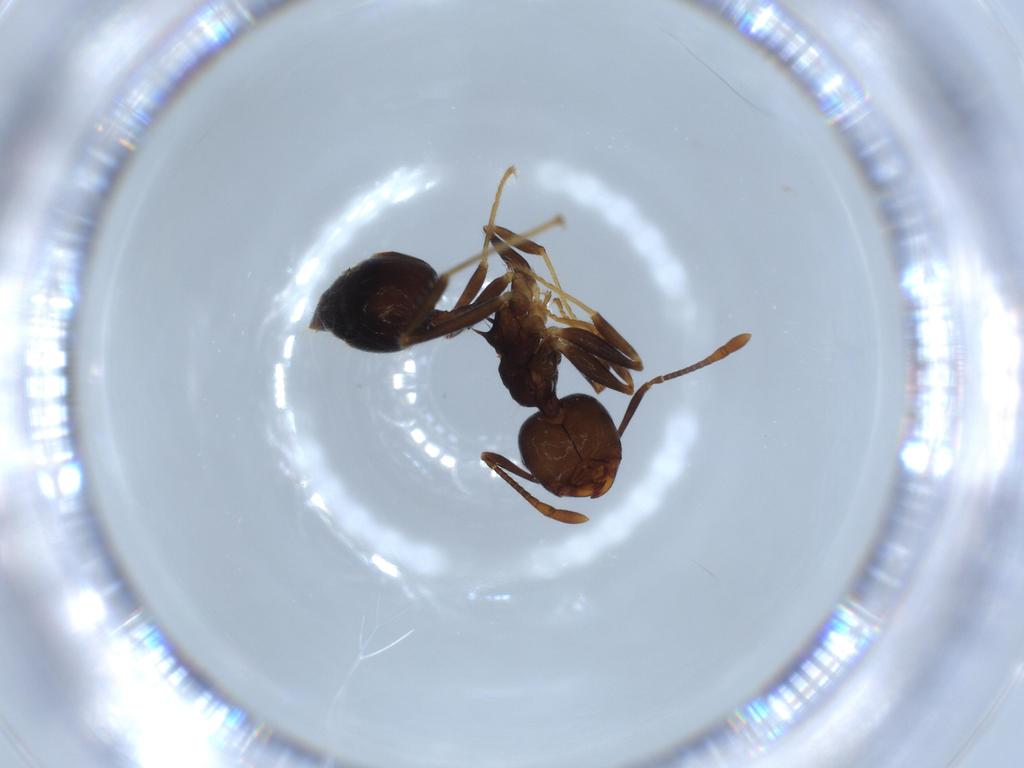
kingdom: Animalia
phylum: Arthropoda
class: Insecta
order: Hymenoptera
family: Formicidae
